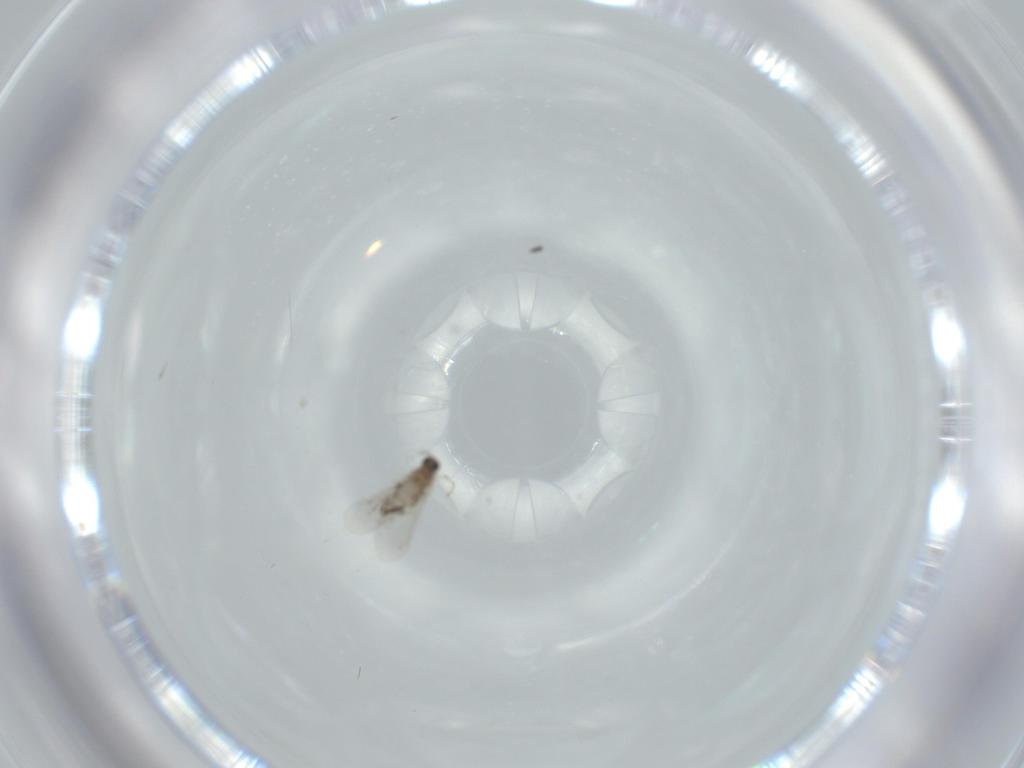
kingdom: Animalia
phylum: Arthropoda
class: Insecta
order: Diptera
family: Cecidomyiidae
